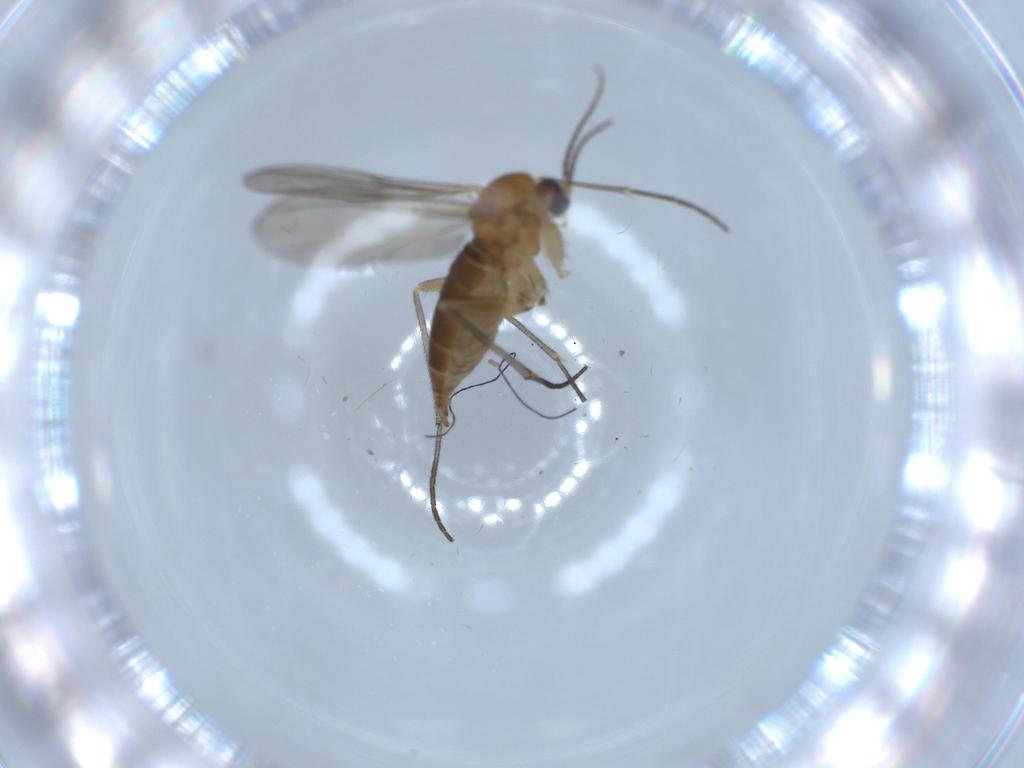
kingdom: Animalia
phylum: Arthropoda
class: Insecta
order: Diptera
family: Sciaridae
